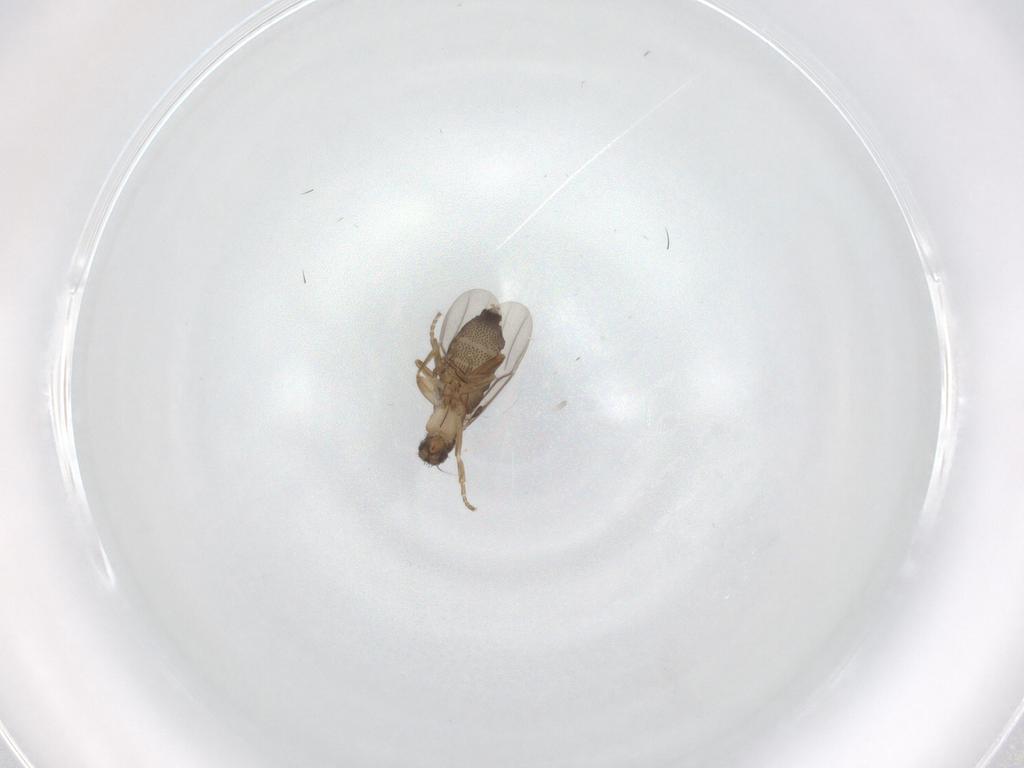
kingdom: Animalia
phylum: Arthropoda
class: Insecta
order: Diptera
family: Phoridae
